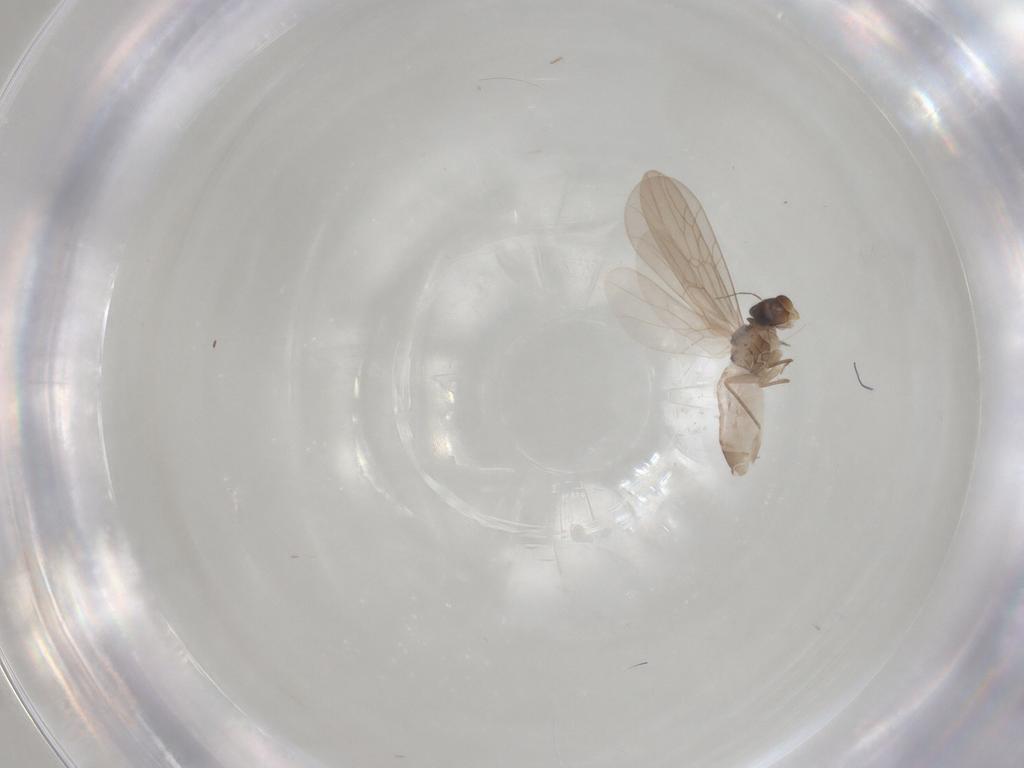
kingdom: Animalia
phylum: Arthropoda
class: Insecta
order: Psocodea
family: Lepidopsocidae
